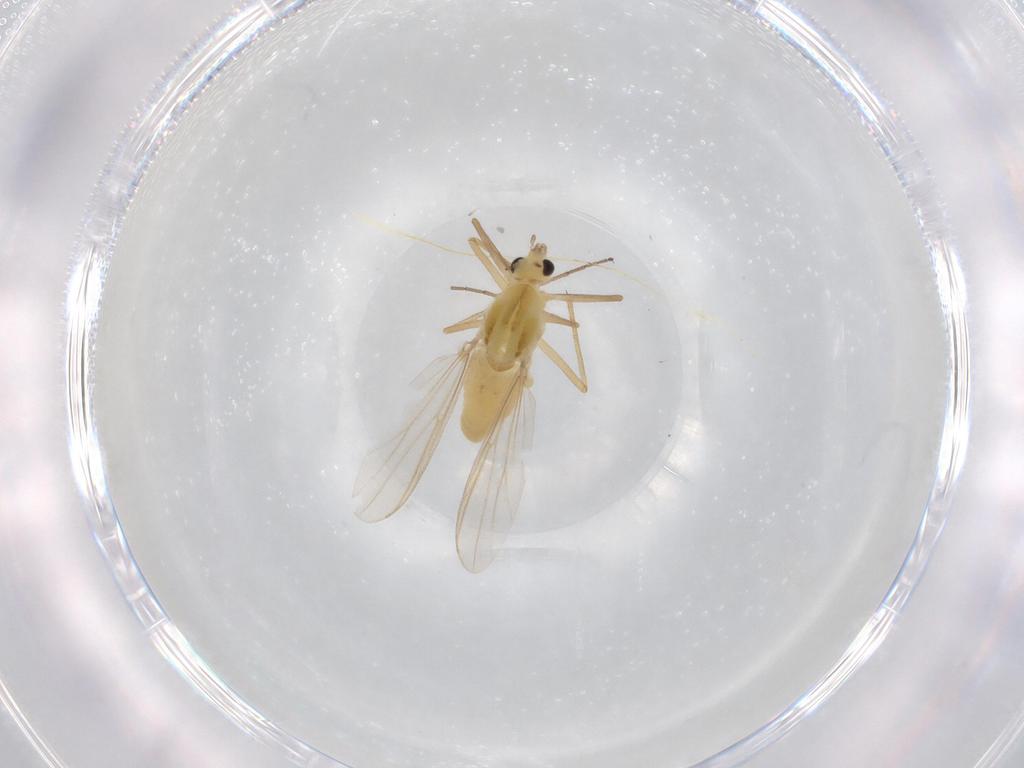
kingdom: Animalia
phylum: Arthropoda
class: Insecta
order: Diptera
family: Chironomidae
